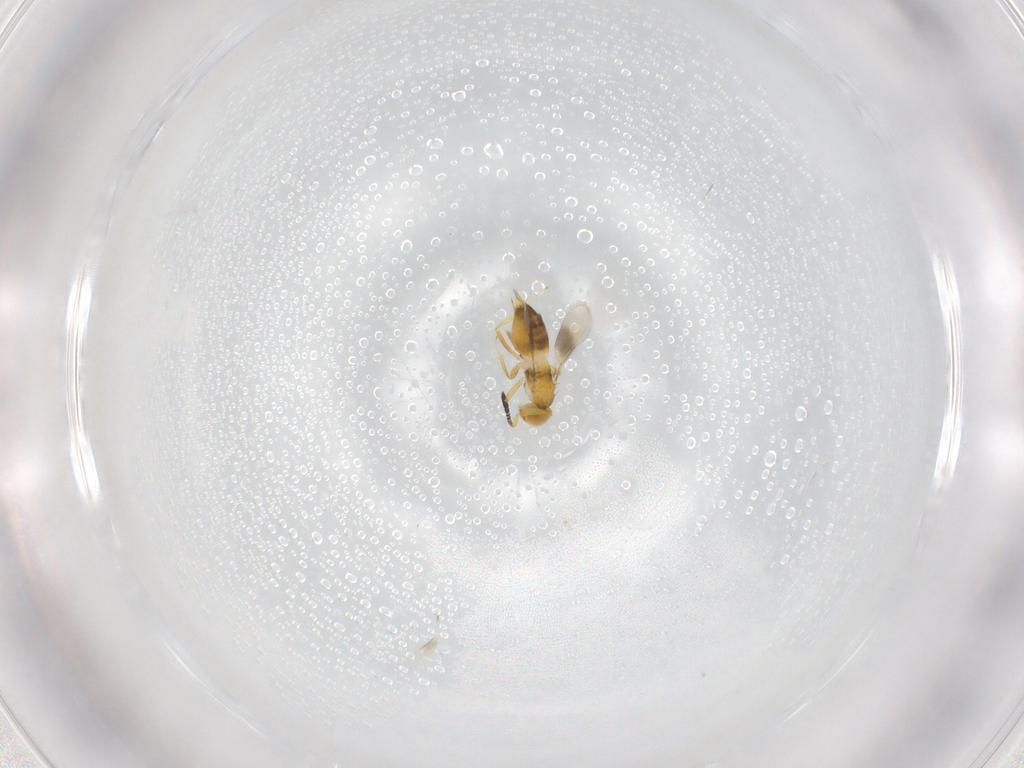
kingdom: Animalia
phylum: Arthropoda
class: Insecta
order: Hymenoptera
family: Encyrtidae
